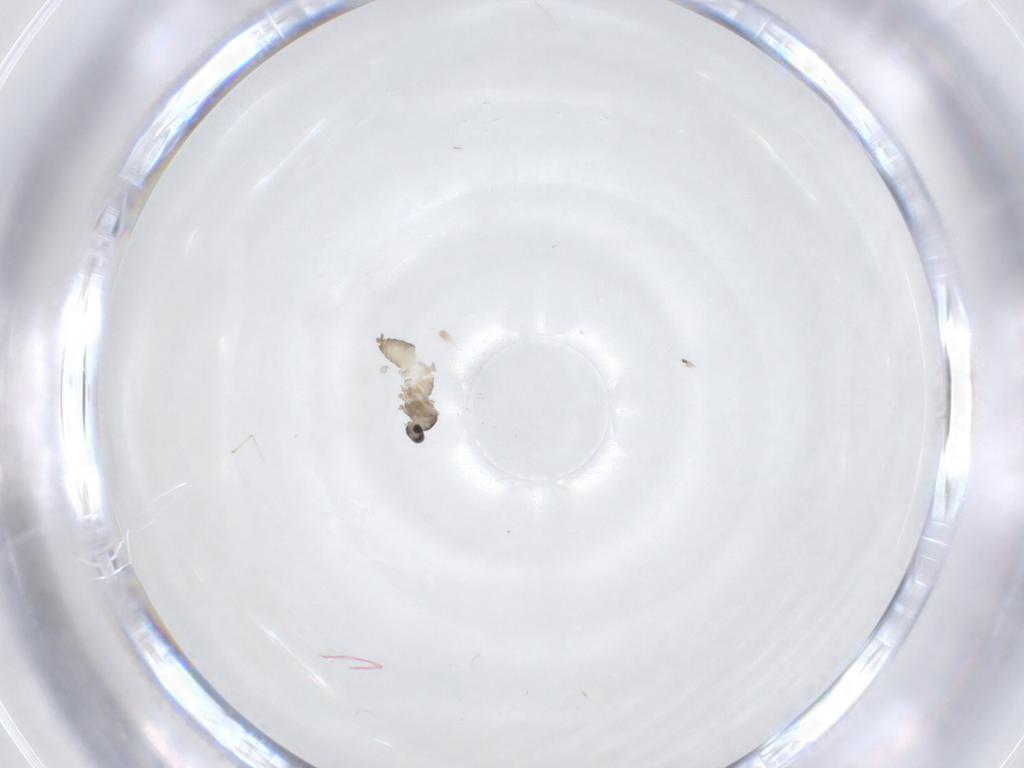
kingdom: Animalia
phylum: Arthropoda
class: Insecta
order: Diptera
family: Cecidomyiidae
